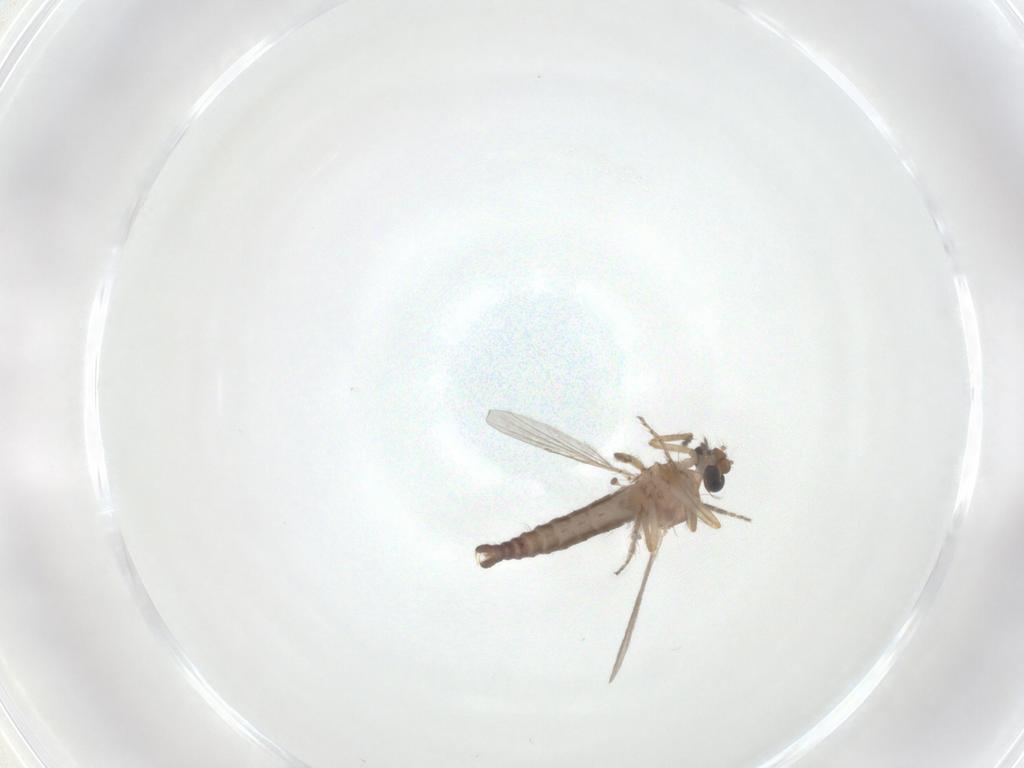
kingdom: Animalia
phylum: Arthropoda
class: Insecta
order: Diptera
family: Ceratopogonidae
